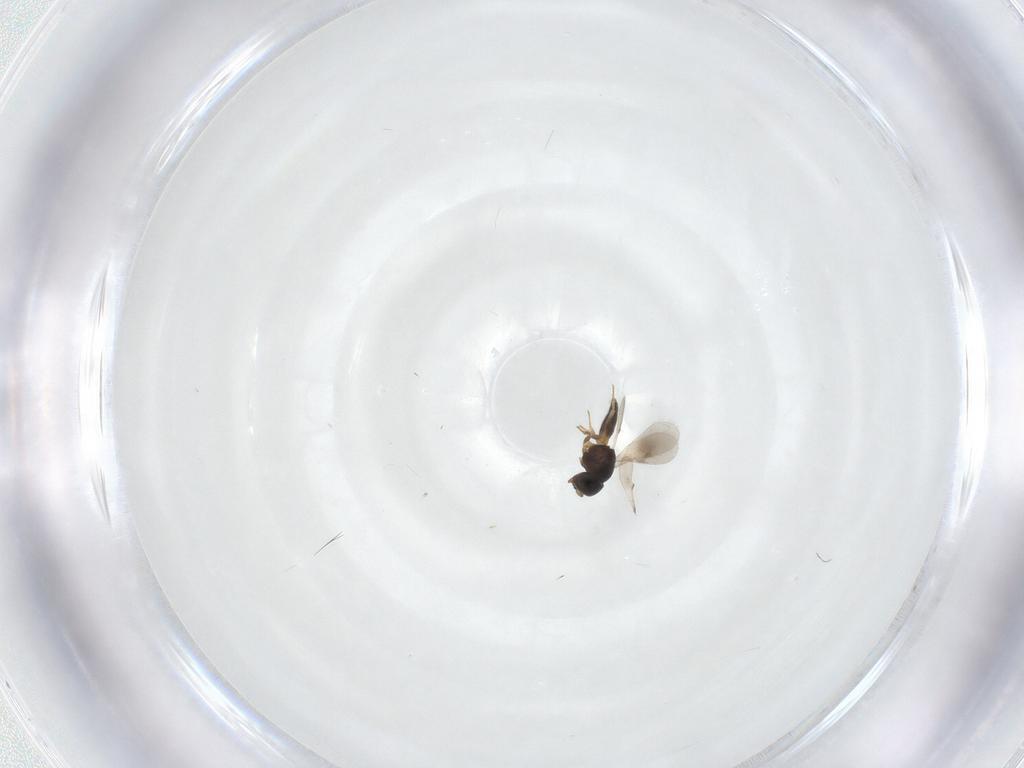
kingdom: Animalia
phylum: Arthropoda
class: Insecta
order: Hymenoptera
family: Scelionidae
